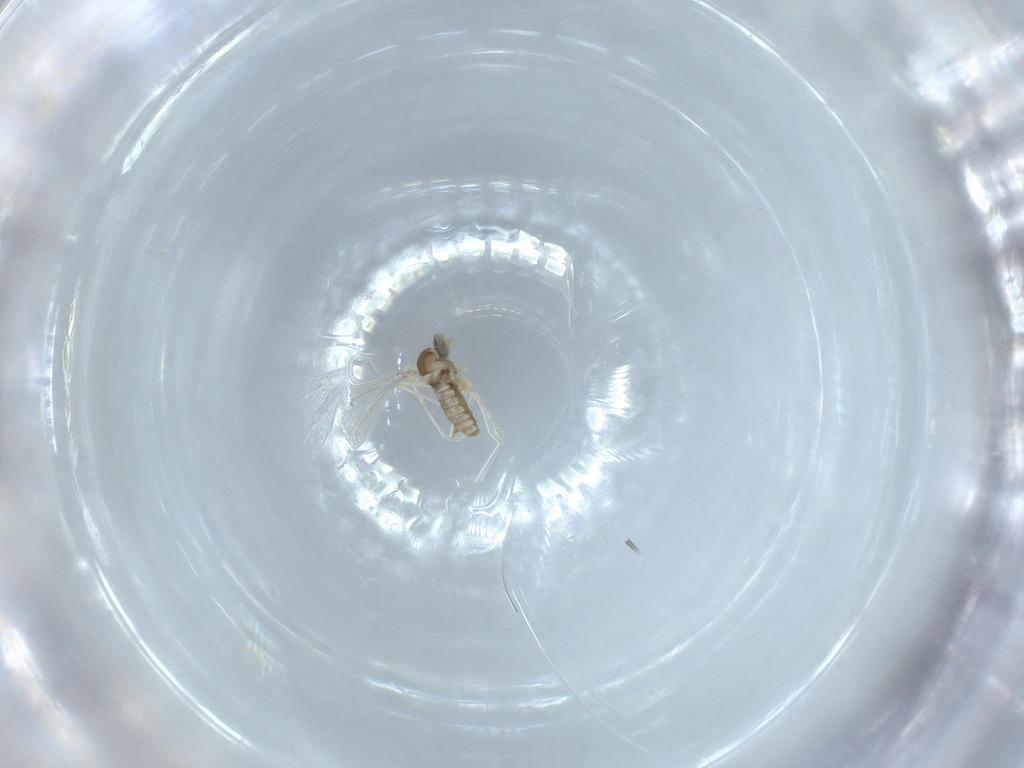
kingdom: Animalia
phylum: Arthropoda
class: Insecta
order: Diptera
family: Cecidomyiidae
